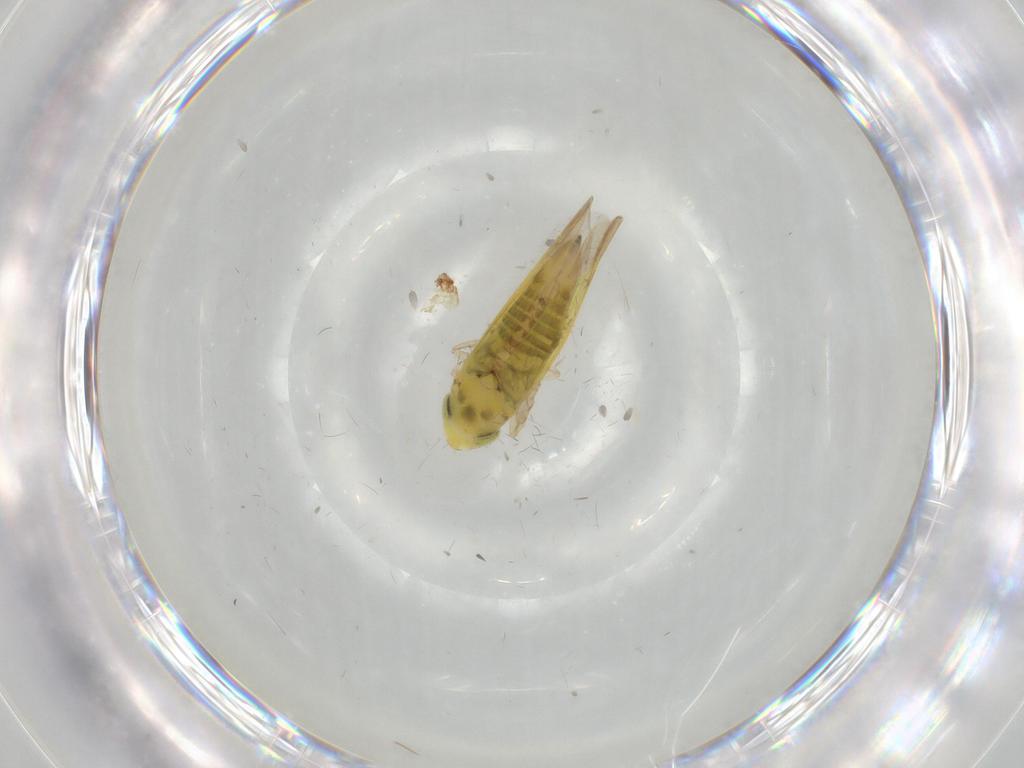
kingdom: Animalia
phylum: Arthropoda
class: Insecta
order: Hemiptera
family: Cicadellidae
